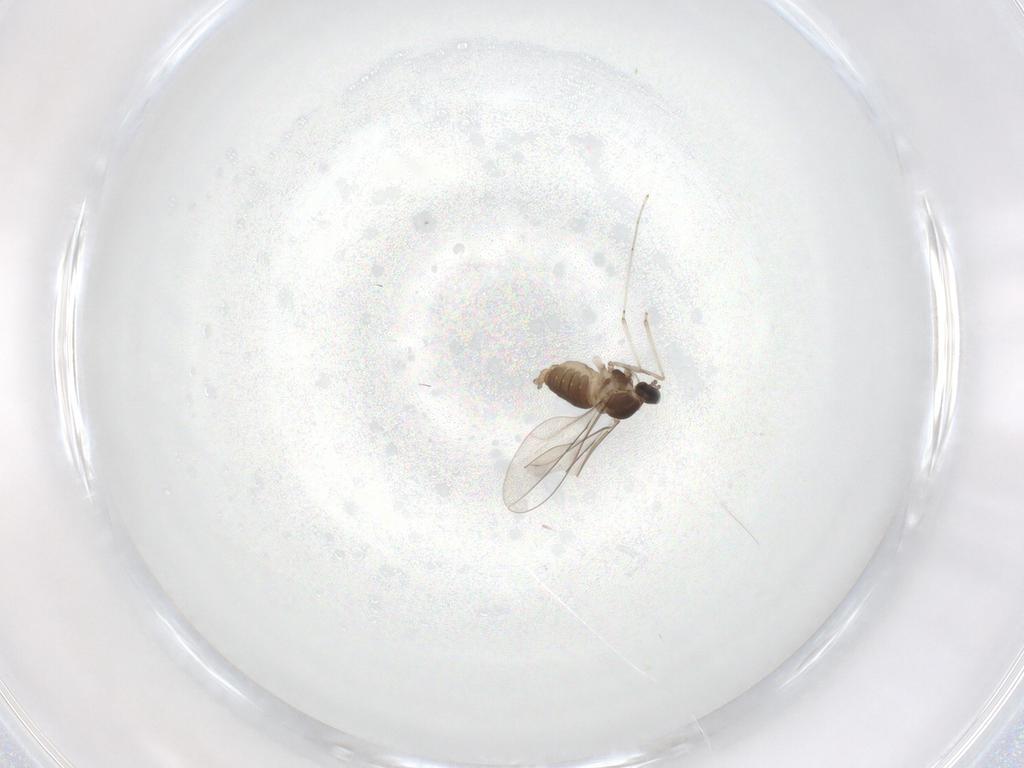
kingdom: Animalia
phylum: Arthropoda
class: Insecta
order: Diptera
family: Cecidomyiidae
